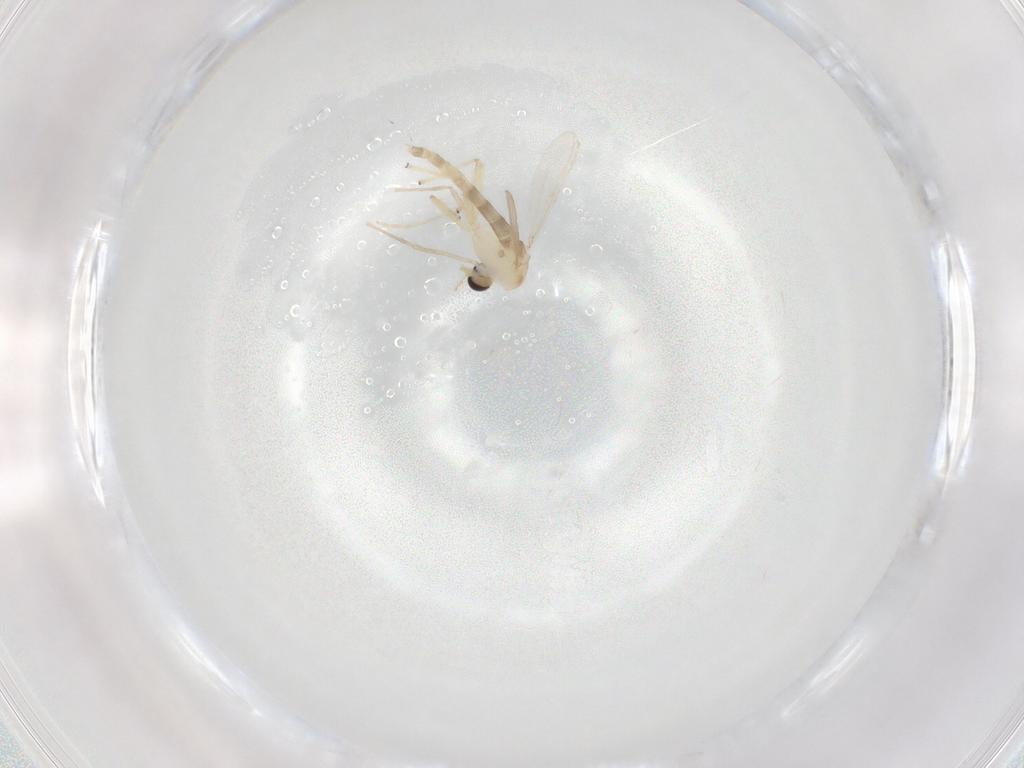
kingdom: Animalia
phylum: Arthropoda
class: Insecta
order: Diptera
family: Chironomidae
